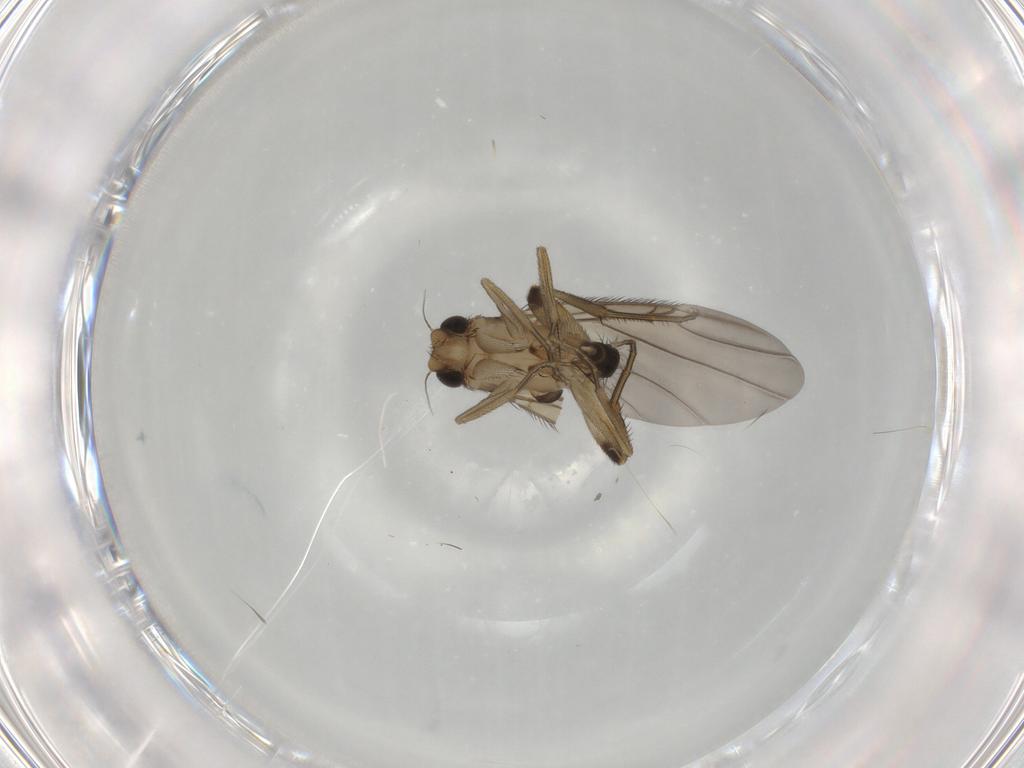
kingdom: Animalia
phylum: Arthropoda
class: Insecta
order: Diptera
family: Phoridae
